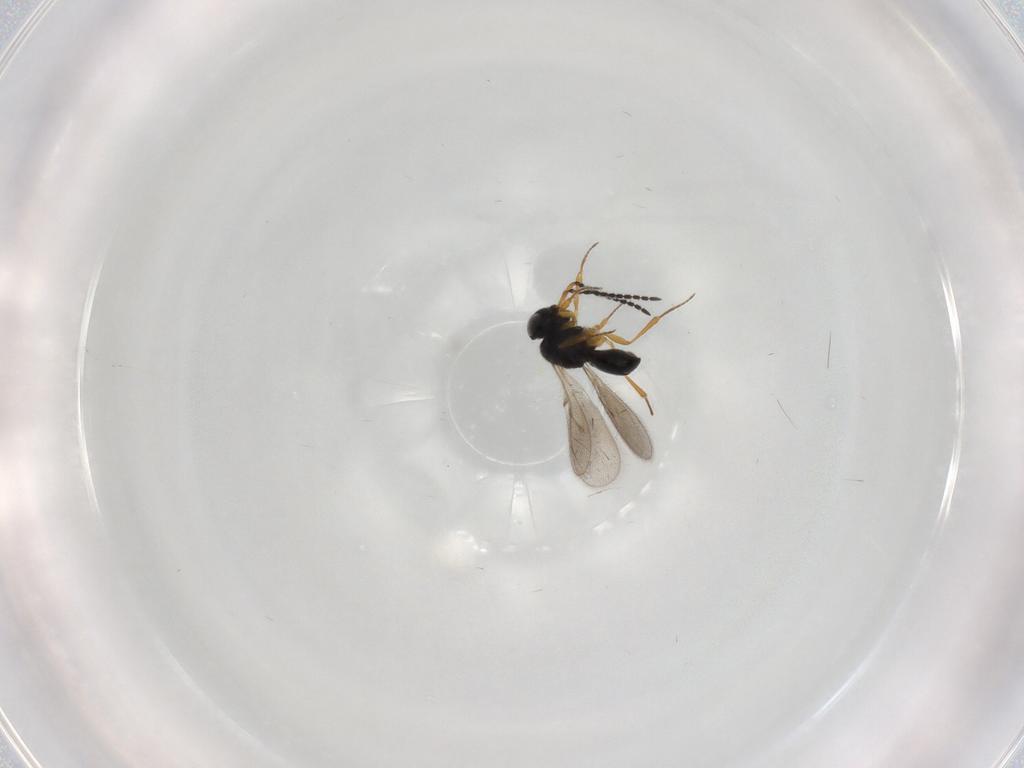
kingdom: Animalia
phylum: Arthropoda
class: Insecta
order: Hymenoptera
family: Scelionidae
